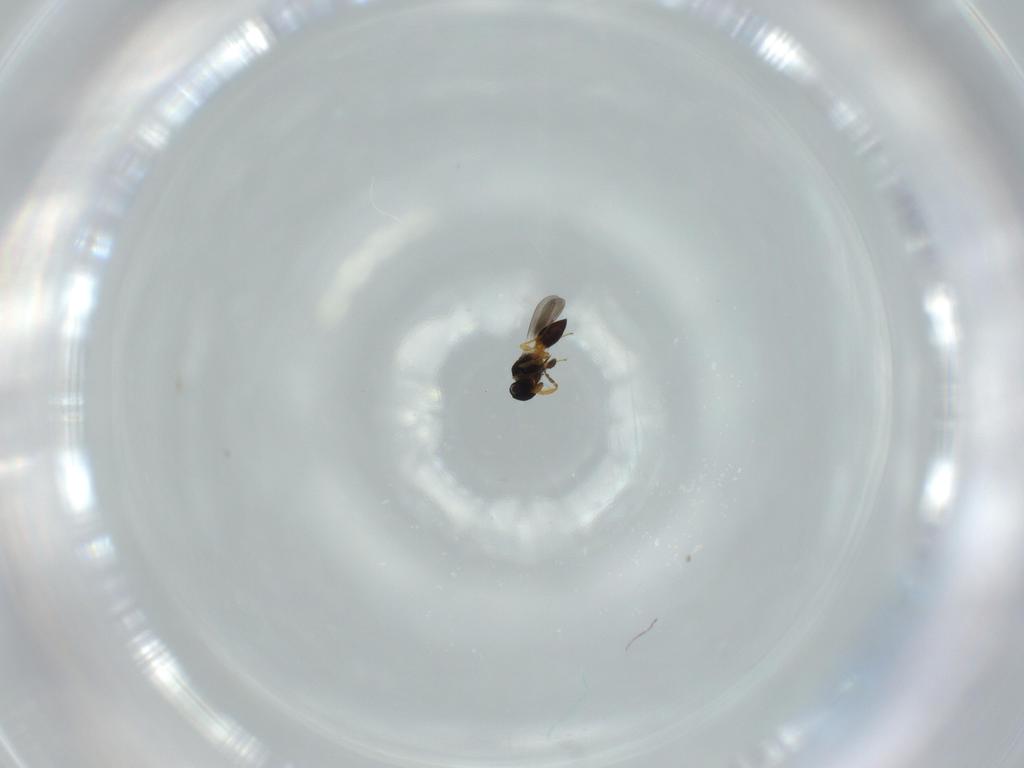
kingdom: Animalia
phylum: Arthropoda
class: Insecta
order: Hymenoptera
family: Platygastridae
